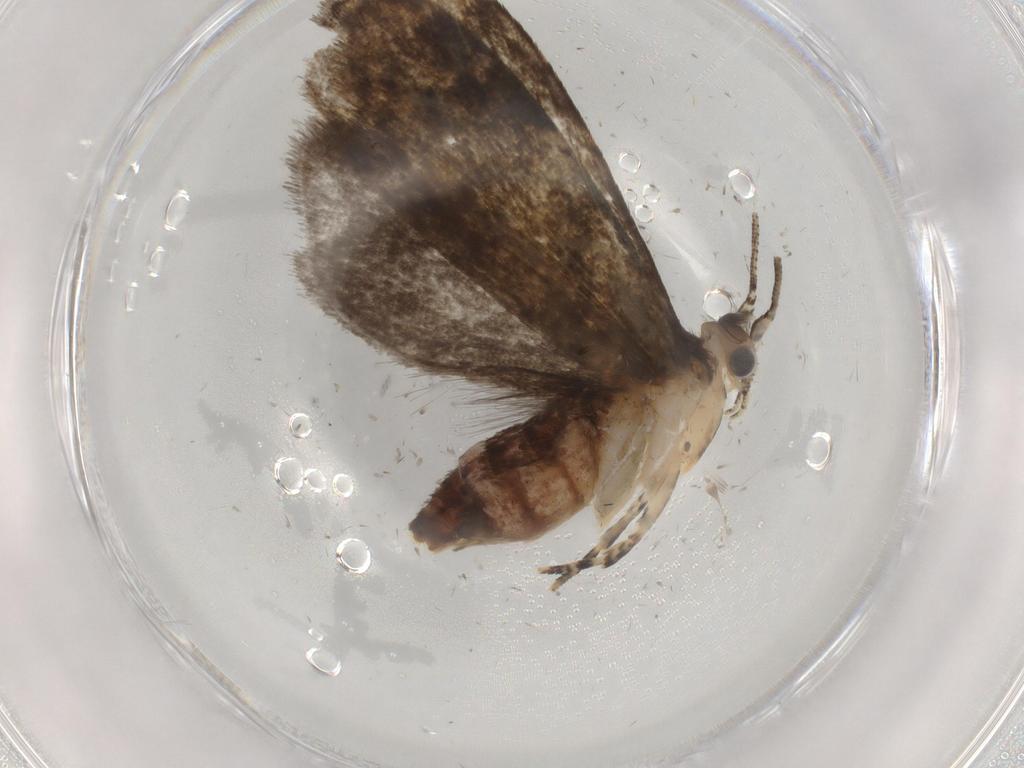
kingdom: Animalia
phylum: Arthropoda
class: Insecta
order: Lepidoptera
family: Tineidae
